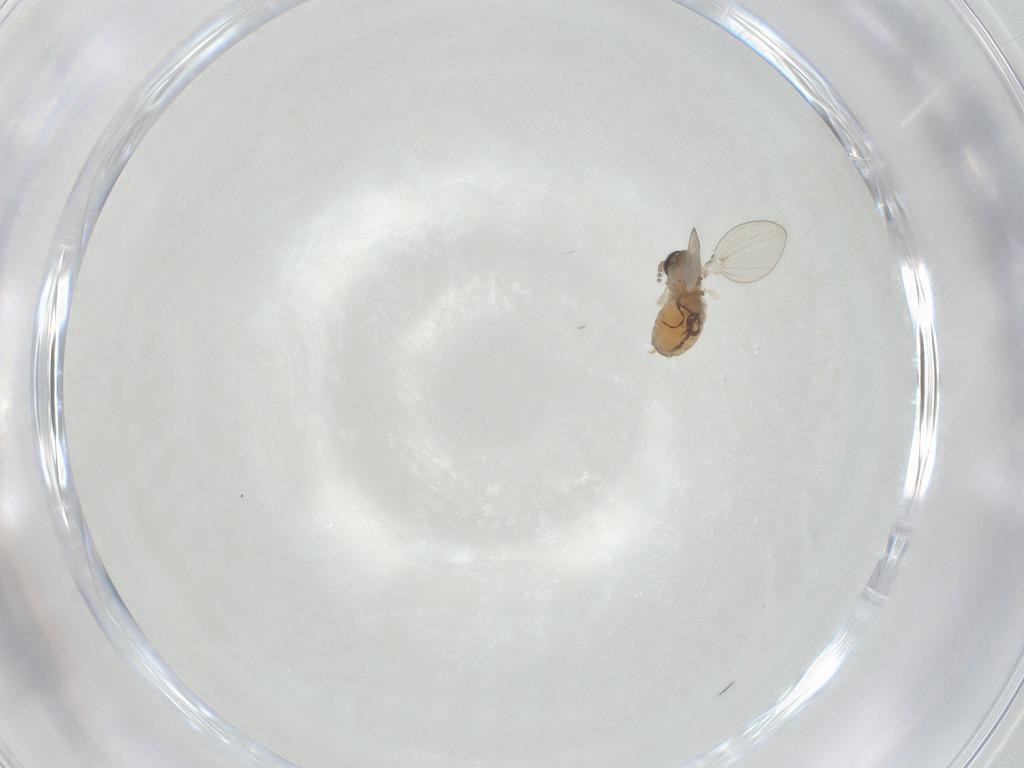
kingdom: Animalia
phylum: Arthropoda
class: Insecta
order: Diptera
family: Psychodidae
